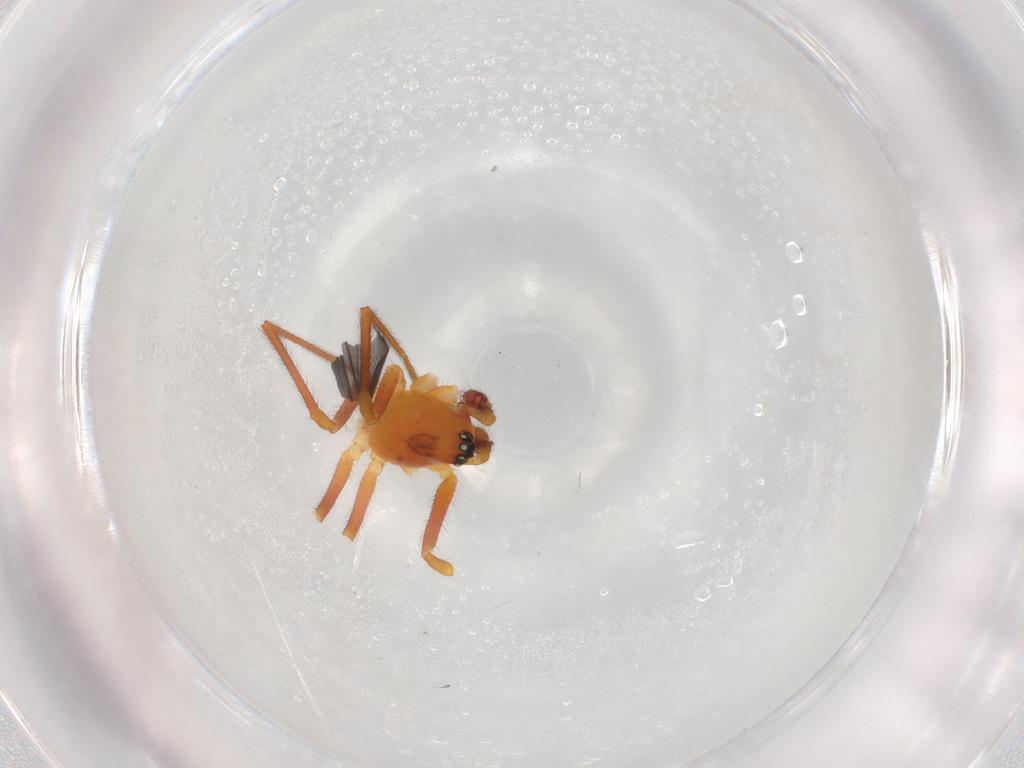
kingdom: Animalia
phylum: Arthropoda
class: Arachnida
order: Araneae
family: Linyphiidae
